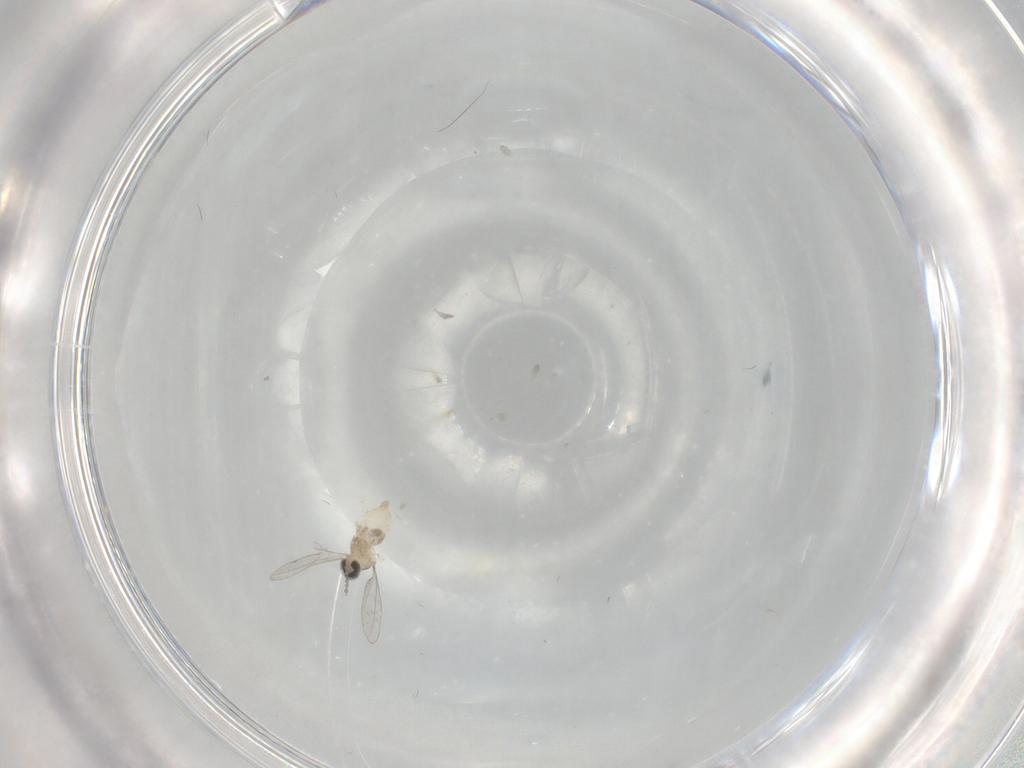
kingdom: Animalia
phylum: Arthropoda
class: Insecta
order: Diptera
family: Cecidomyiidae
